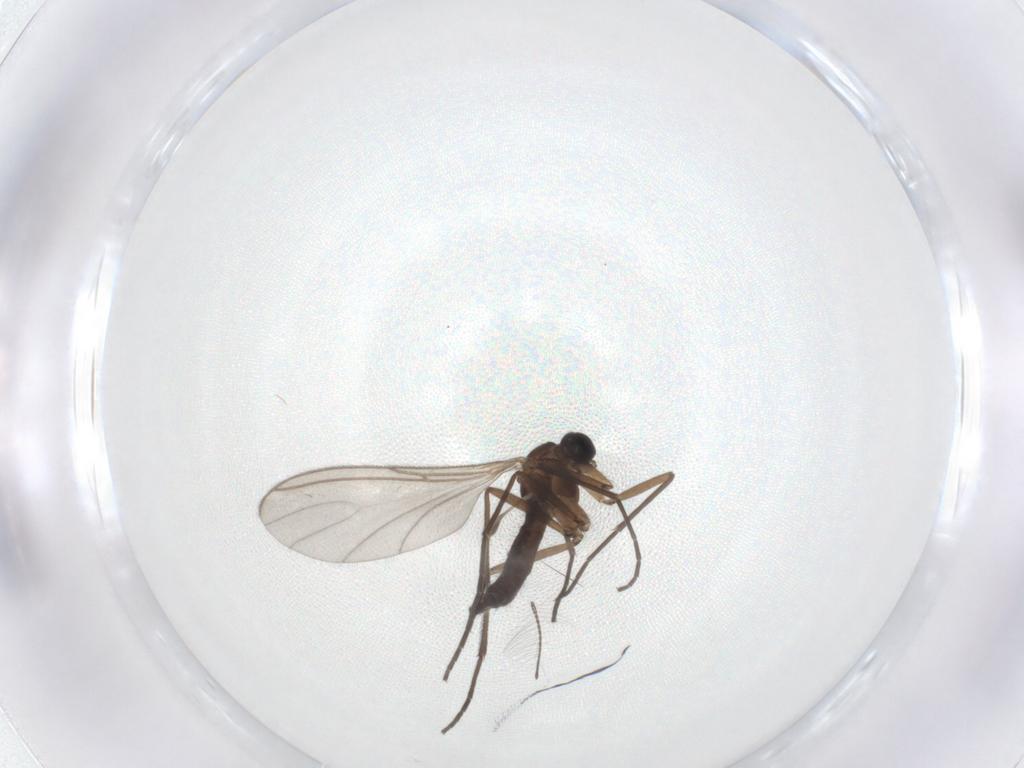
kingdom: Animalia
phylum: Arthropoda
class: Insecta
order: Diptera
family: Sciaridae
